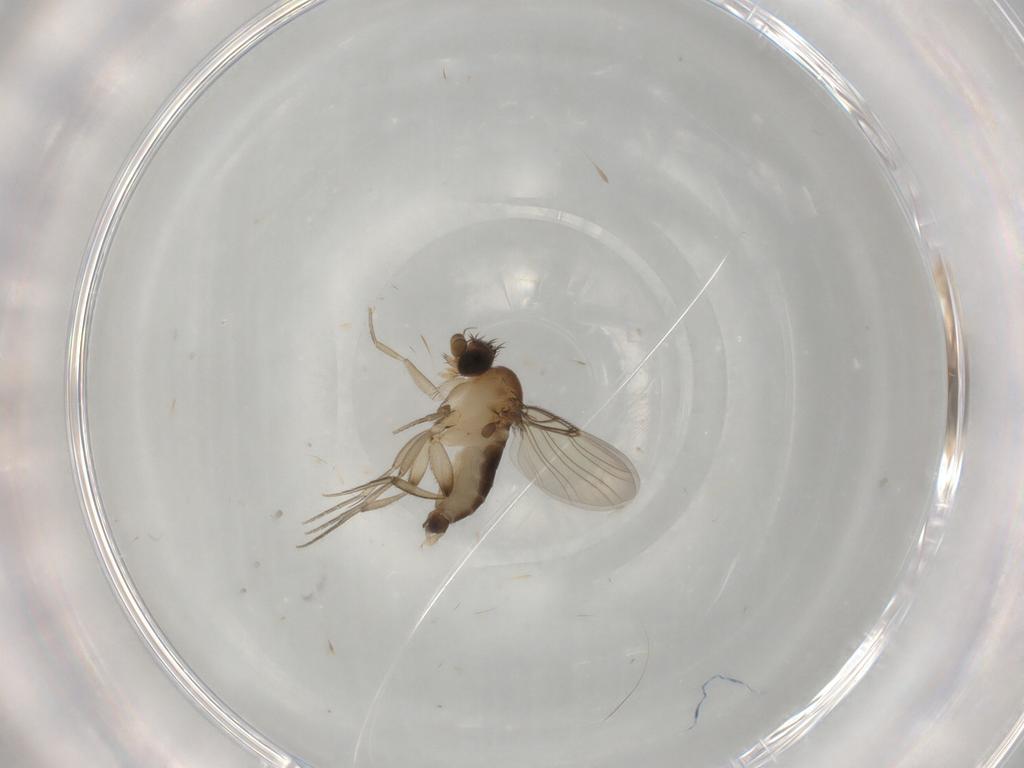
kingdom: Animalia
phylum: Arthropoda
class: Insecta
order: Diptera
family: Phoridae
